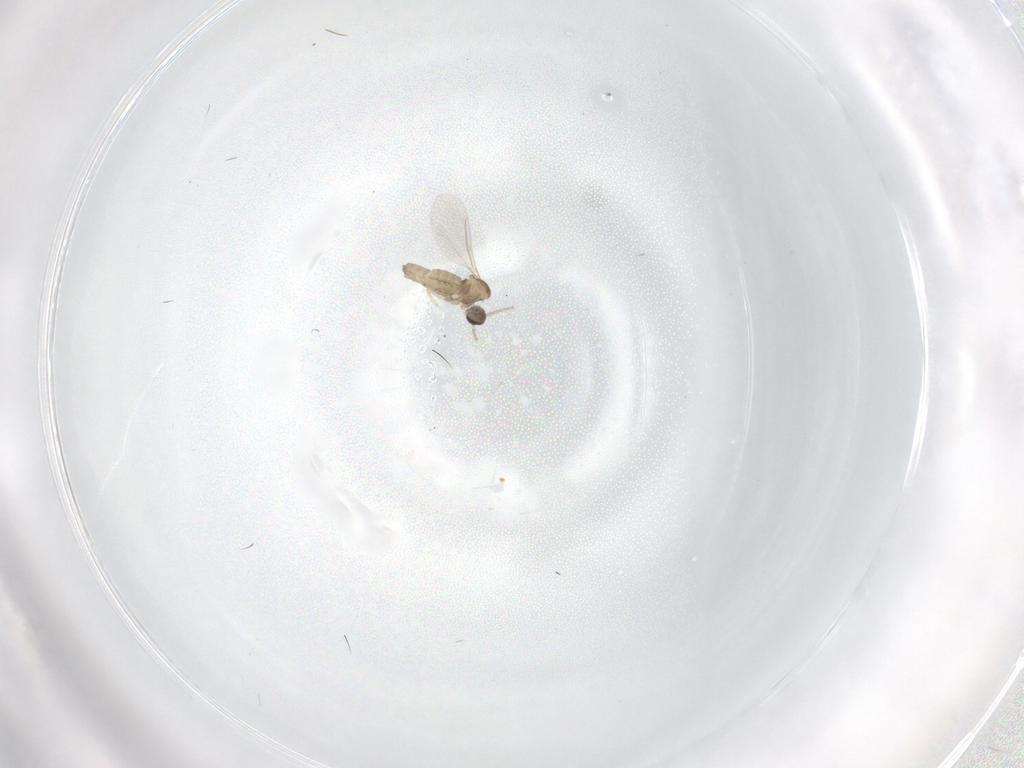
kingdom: Animalia
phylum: Arthropoda
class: Insecta
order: Diptera
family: Cecidomyiidae
